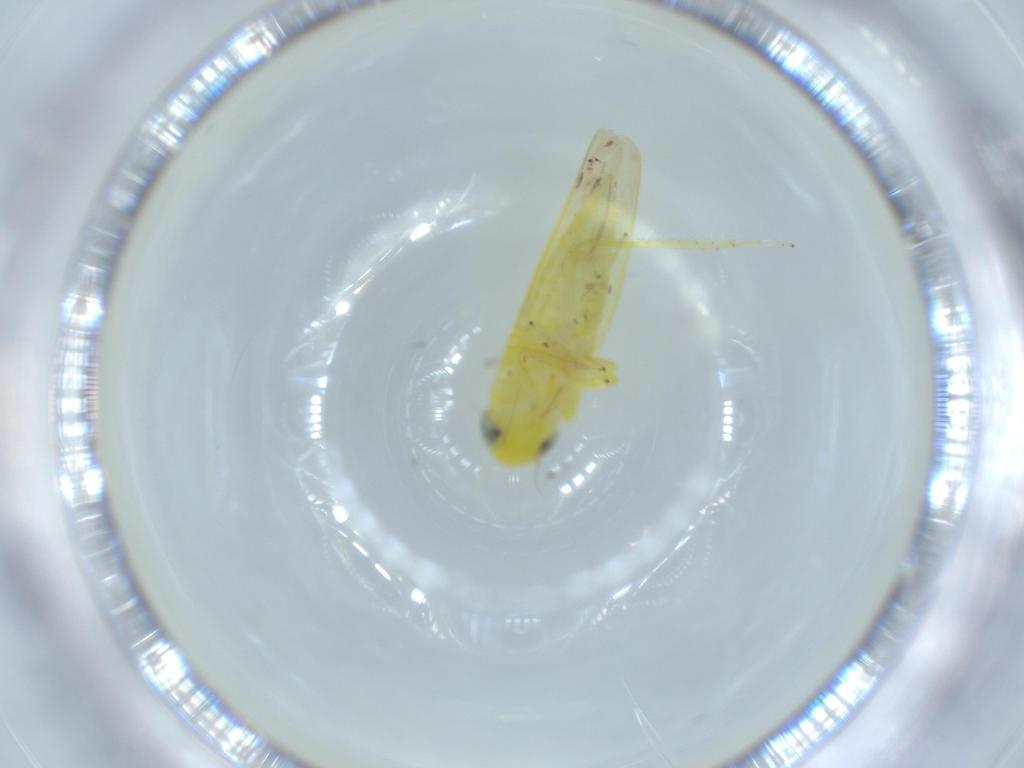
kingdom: Animalia
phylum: Arthropoda
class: Insecta
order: Hemiptera
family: Cicadellidae
